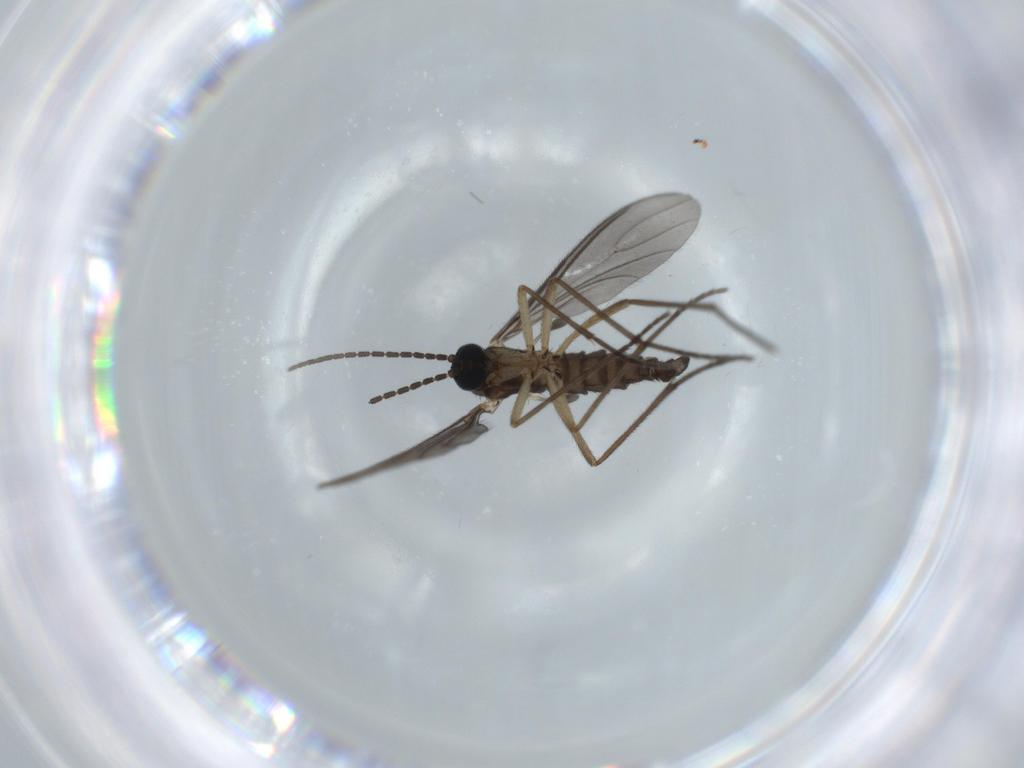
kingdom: Animalia
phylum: Arthropoda
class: Insecta
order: Diptera
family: Sciaridae
